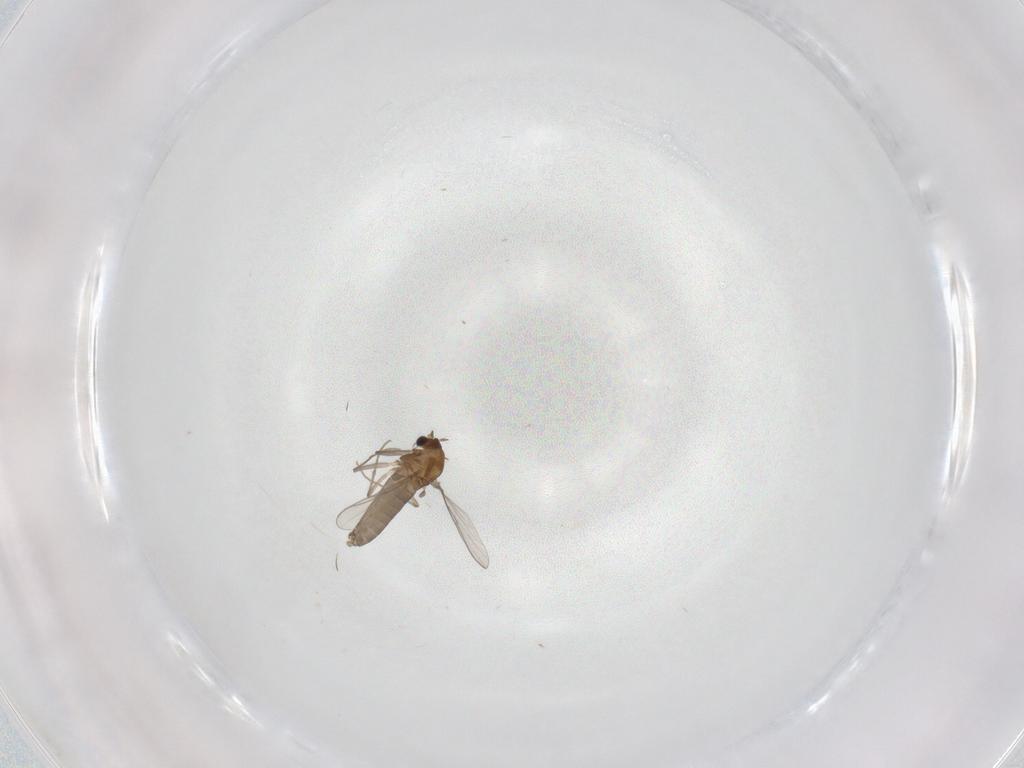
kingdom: Animalia
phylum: Arthropoda
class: Insecta
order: Diptera
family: Chironomidae
